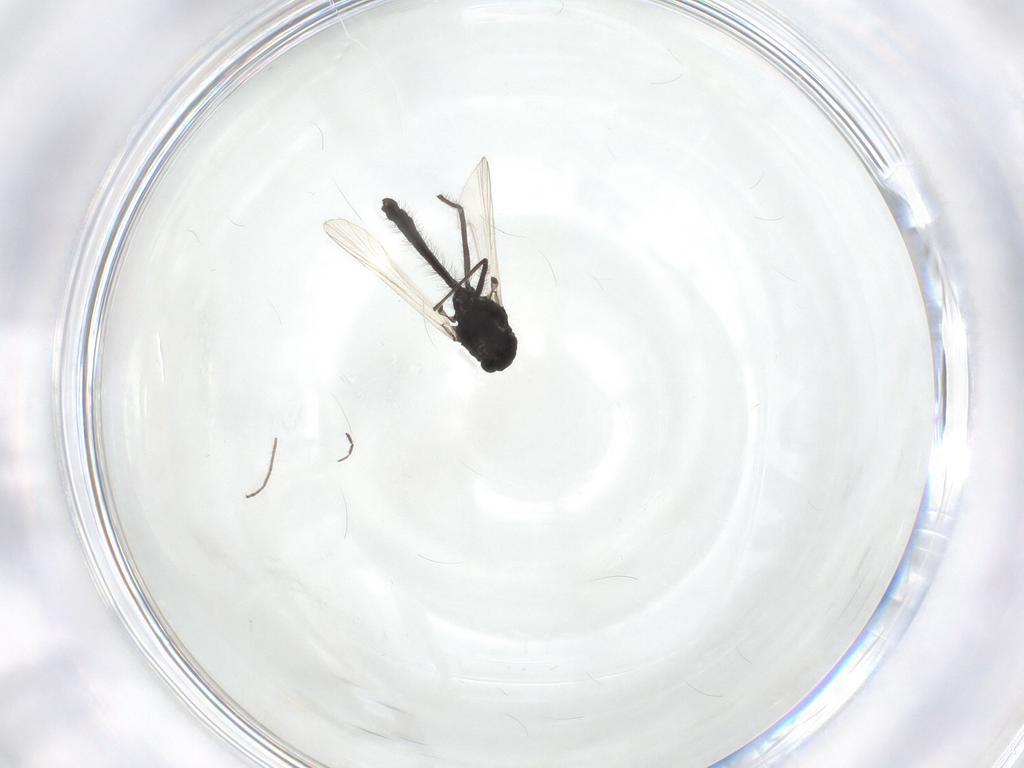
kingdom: Animalia
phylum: Arthropoda
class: Insecta
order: Diptera
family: Chironomidae
